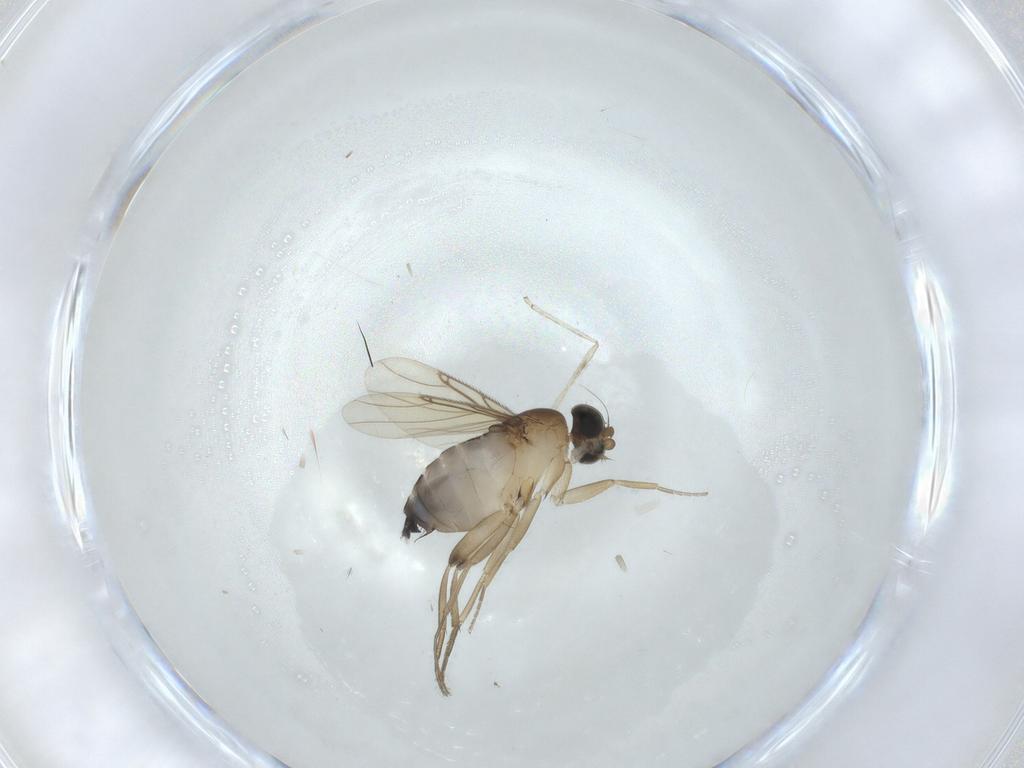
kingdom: Animalia
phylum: Arthropoda
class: Insecta
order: Diptera
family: Phoridae
